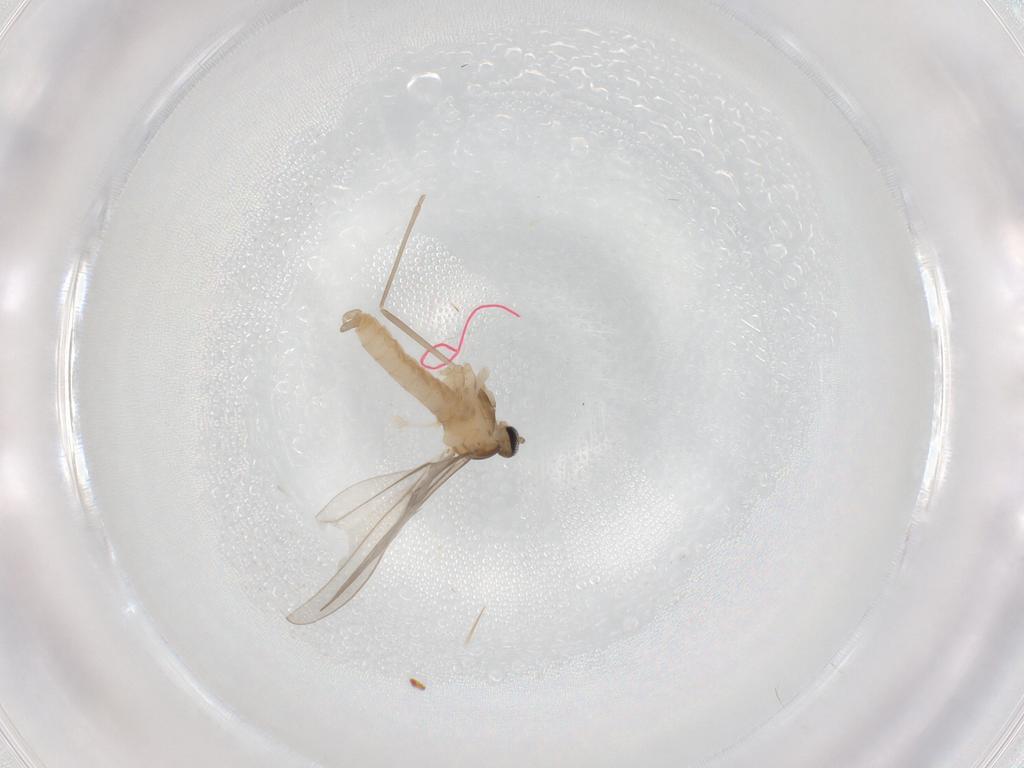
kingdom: Animalia
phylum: Arthropoda
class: Insecta
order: Diptera
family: Cecidomyiidae
